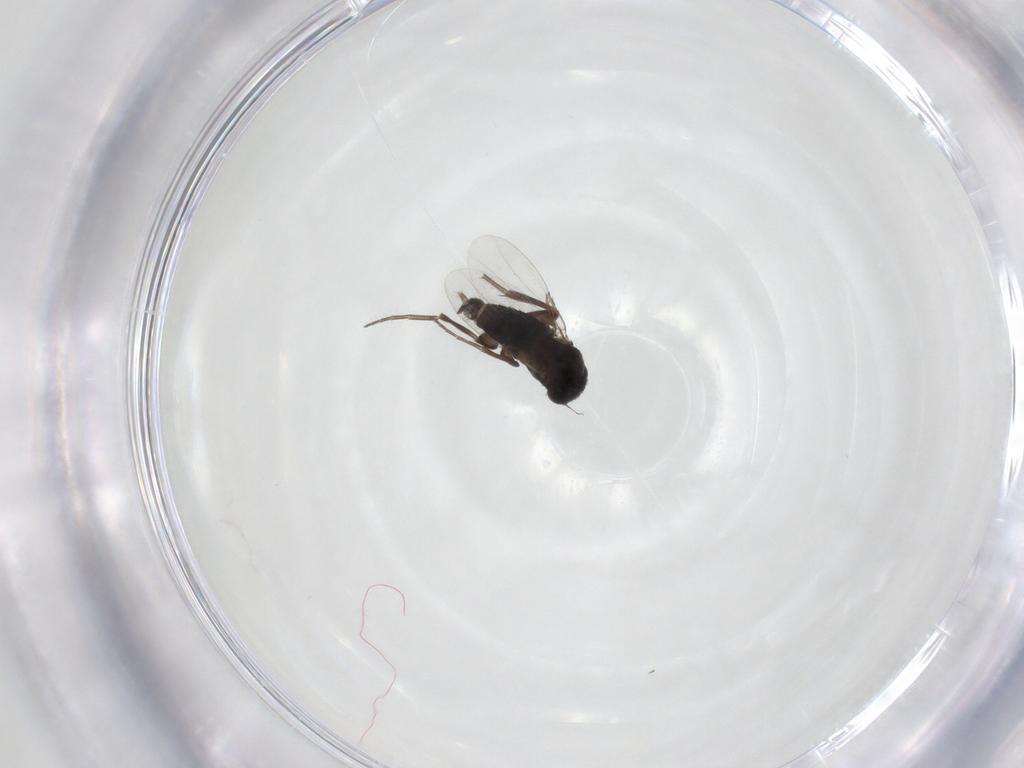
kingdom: Animalia
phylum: Arthropoda
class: Insecta
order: Diptera
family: Phoridae
